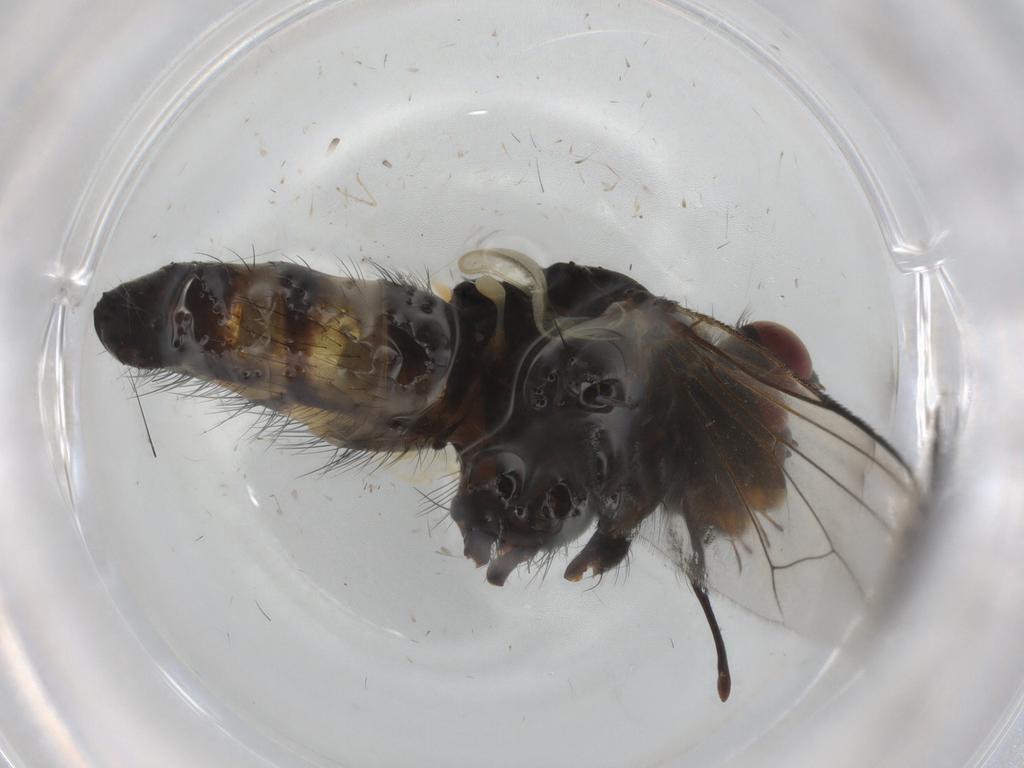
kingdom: Animalia
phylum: Arthropoda
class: Insecta
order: Diptera
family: Tachinidae
